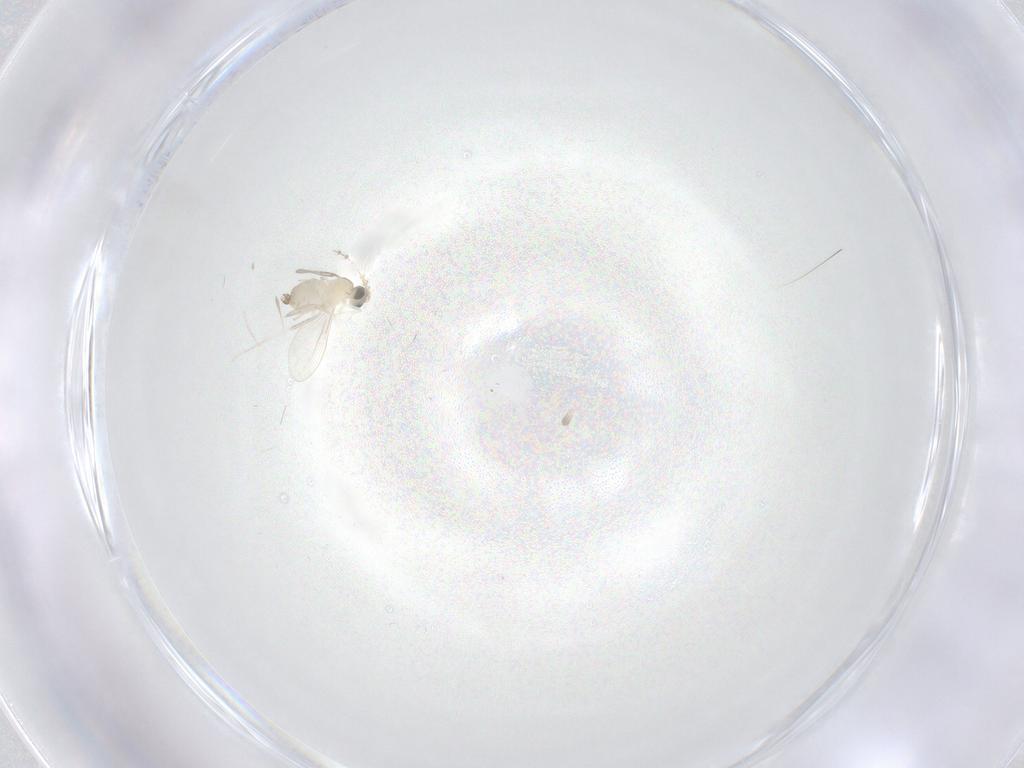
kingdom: Animalia
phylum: Arthropoda
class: Insecta
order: Diptera
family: Cecidomyiidae
